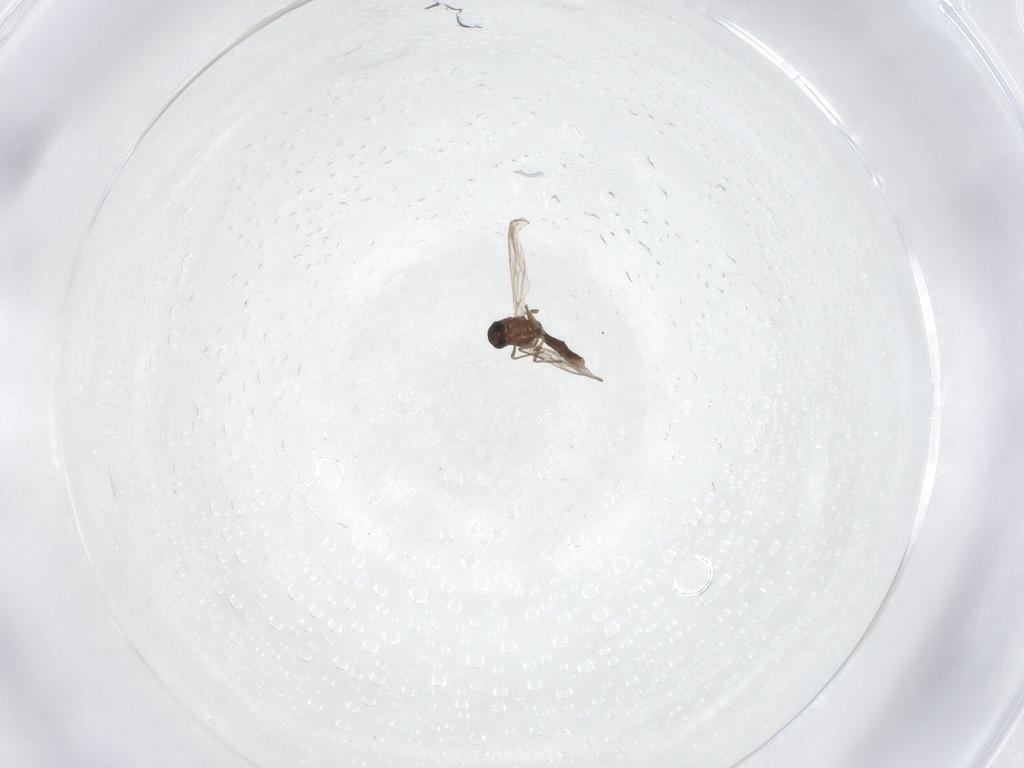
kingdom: Animalia
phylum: Arthropoda
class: Insecta
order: Diptera
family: Chironomidae
